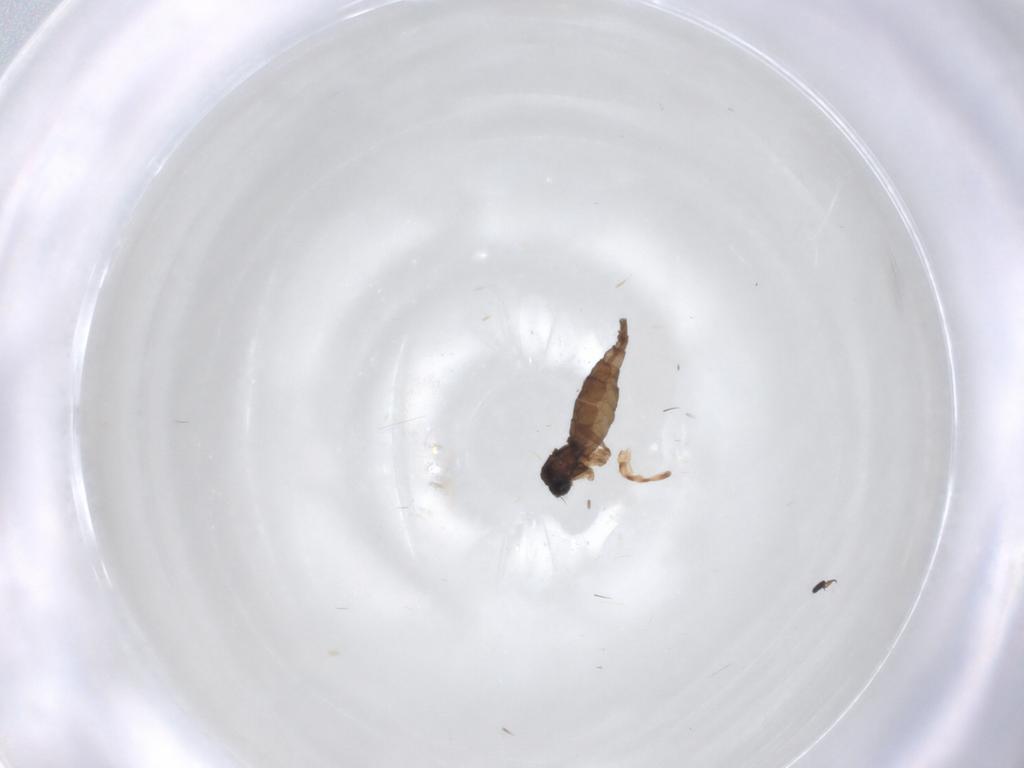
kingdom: Animalia
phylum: Arthropoda
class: Insecta
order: Diptera
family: Sciaridae
